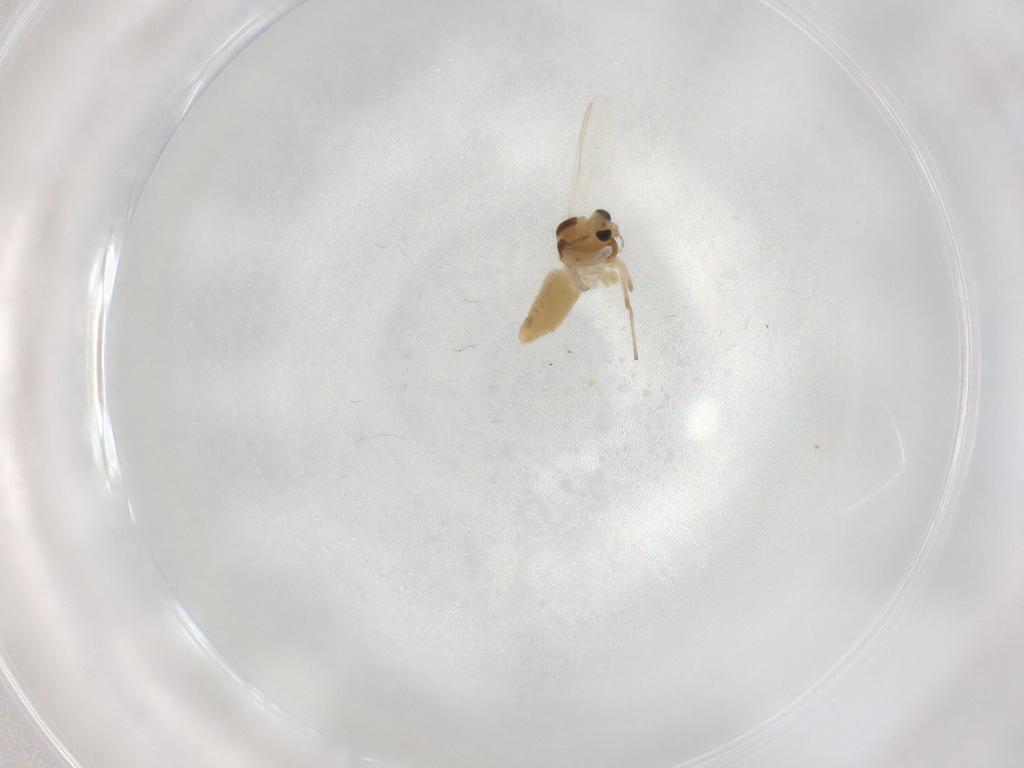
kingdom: Animalia
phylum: Arthropoda
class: Insecta
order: Diptera
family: Chironomidae
